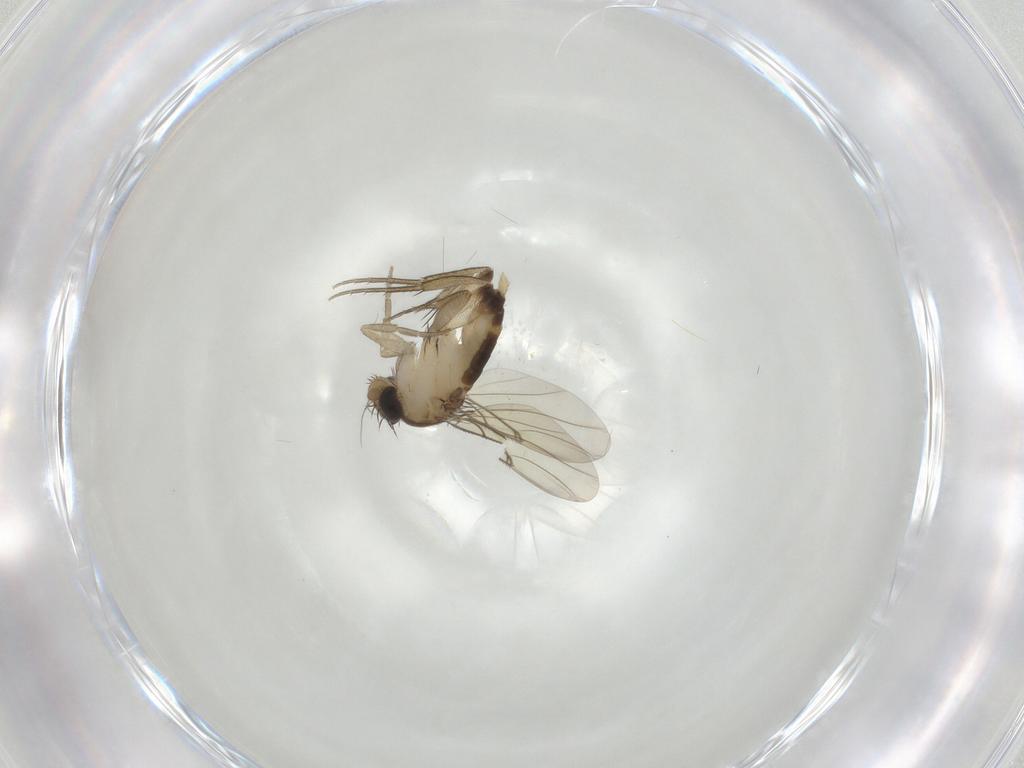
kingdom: Animalia
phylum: Arthropoda
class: Insecta
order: Diptera
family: Phoridae
